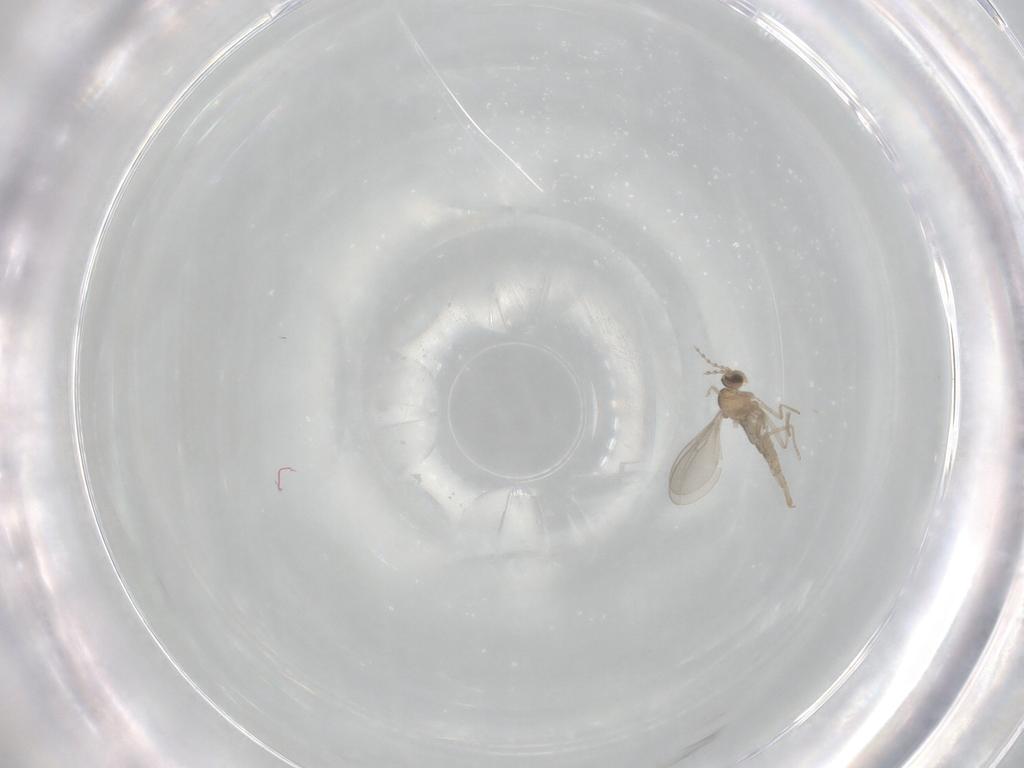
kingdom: Animalia
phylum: Arthropoda
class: Insecta
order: Diptera
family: Cecidomyiidae
